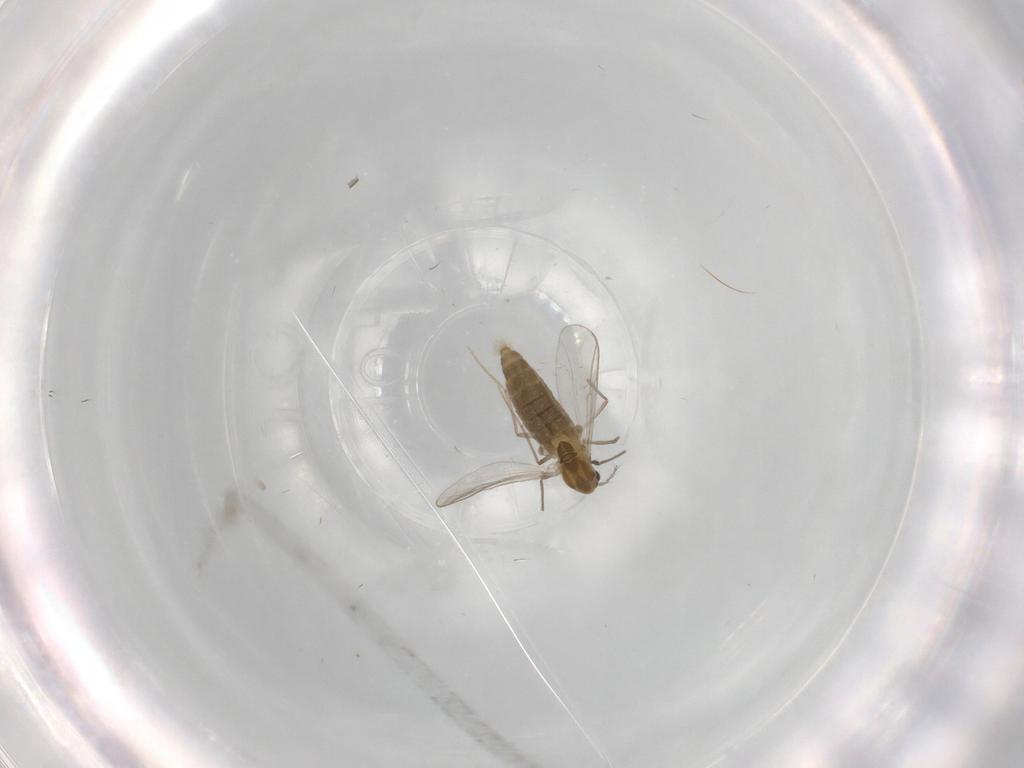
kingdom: Animalia
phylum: Arthropoda
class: Insecta
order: Diptera
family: Chironomidae
